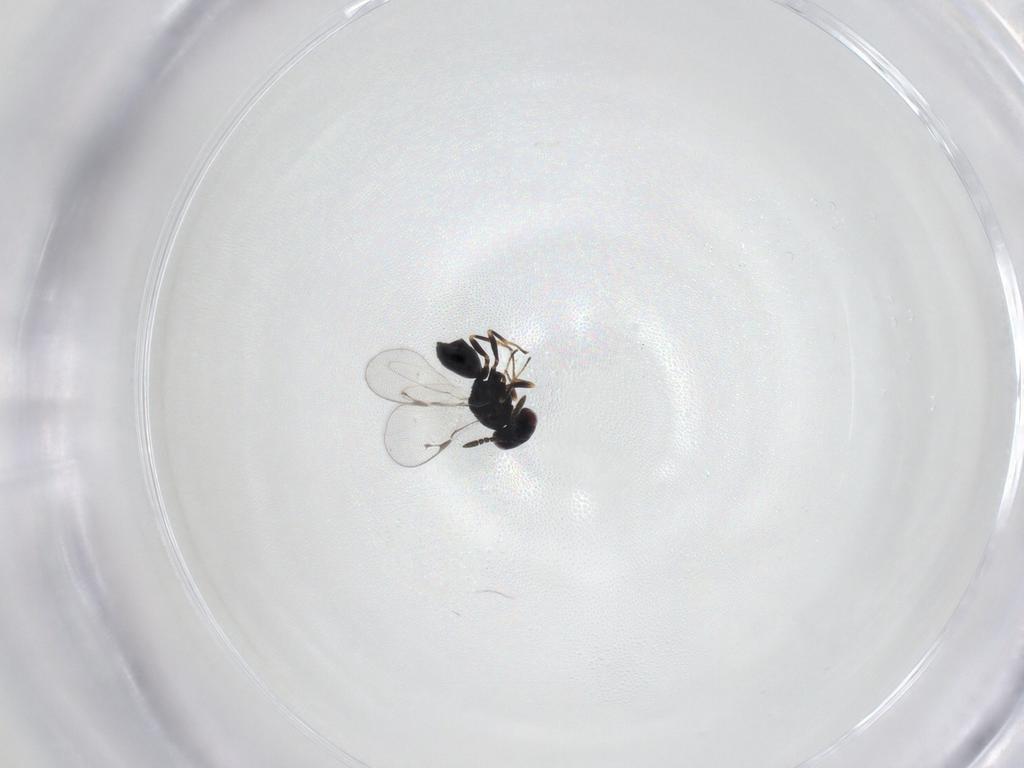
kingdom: Animalia
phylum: Arthropoda
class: Insecta
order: Hymenoptera
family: Pteromalidae
